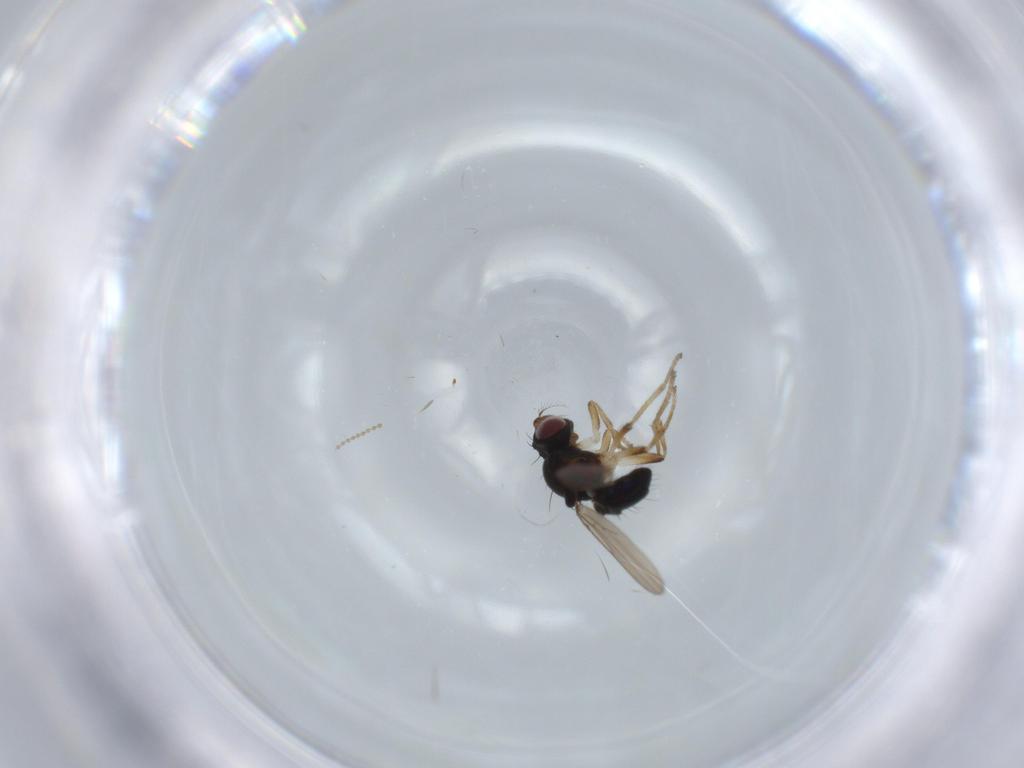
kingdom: Animalia
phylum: Arthropoda
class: Insecta
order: Diptera
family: Ephydridae
